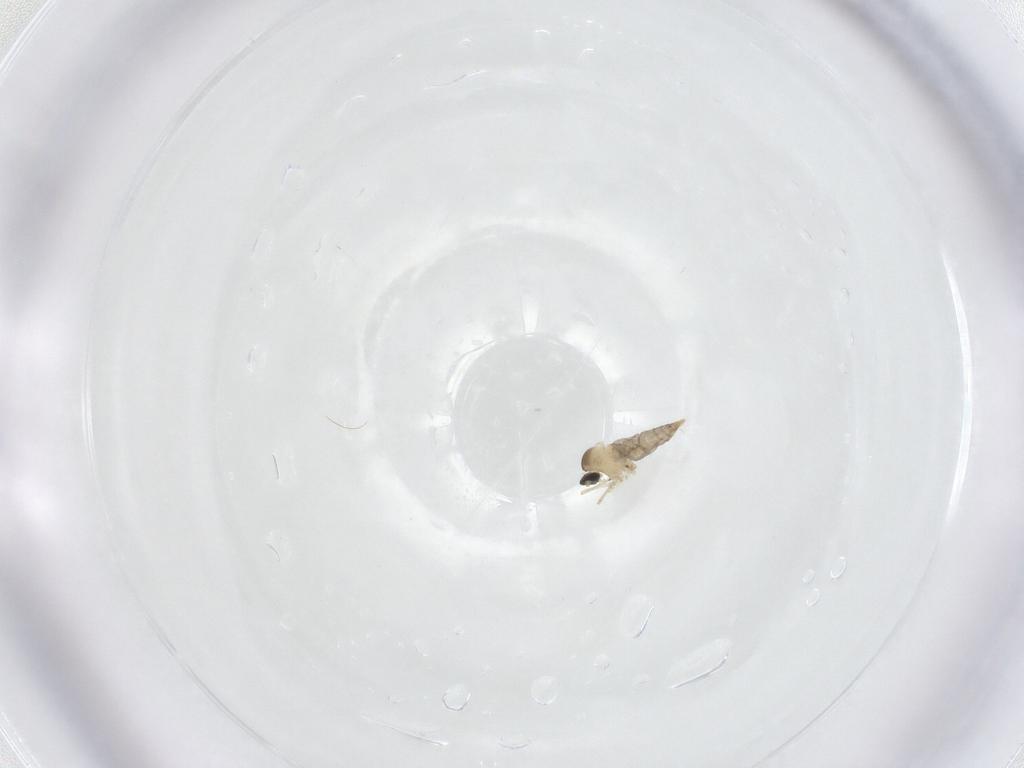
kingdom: Animalia
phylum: Arthropoda
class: Insecta
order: Diptera
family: Tabanidae
